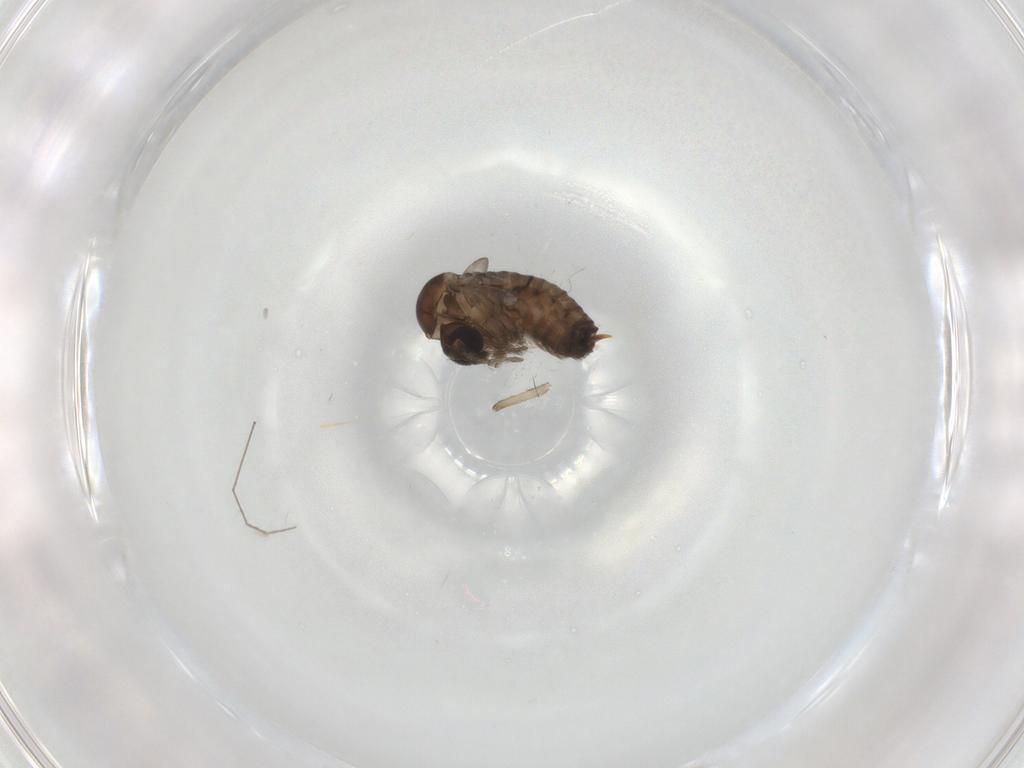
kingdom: Animalia
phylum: Arthropoda
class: Insecta
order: Diptera
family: Psychodidae
